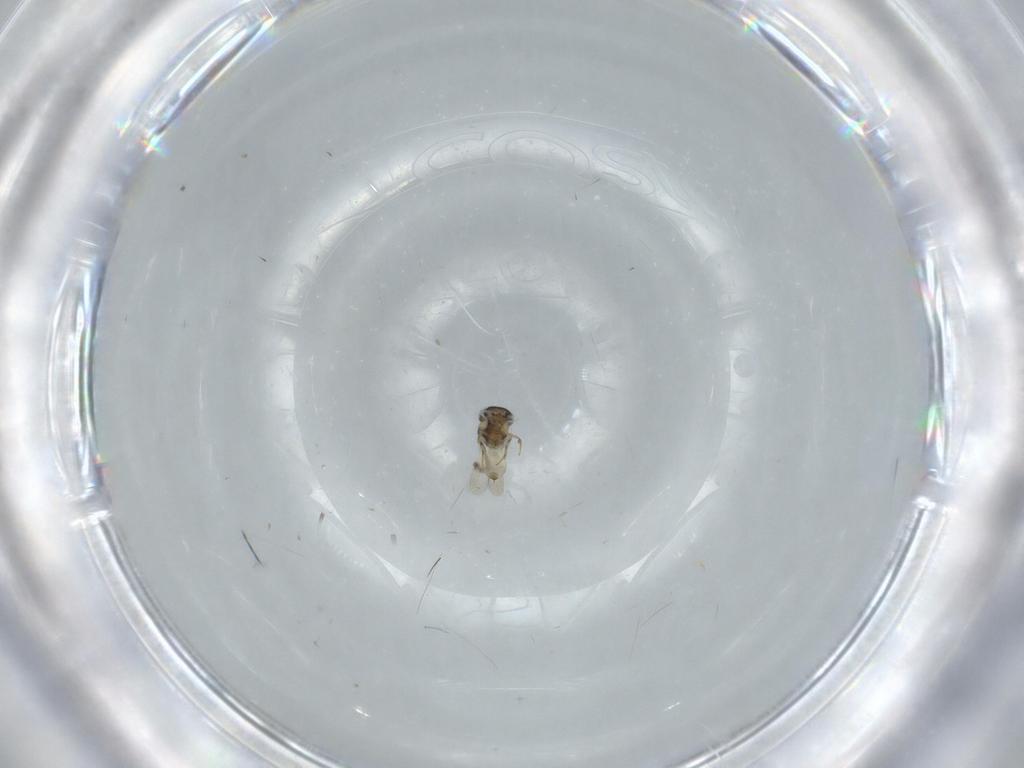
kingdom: Animalia
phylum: Arthropoda
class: Insecta
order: Hymenoptera
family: Scelionidae
